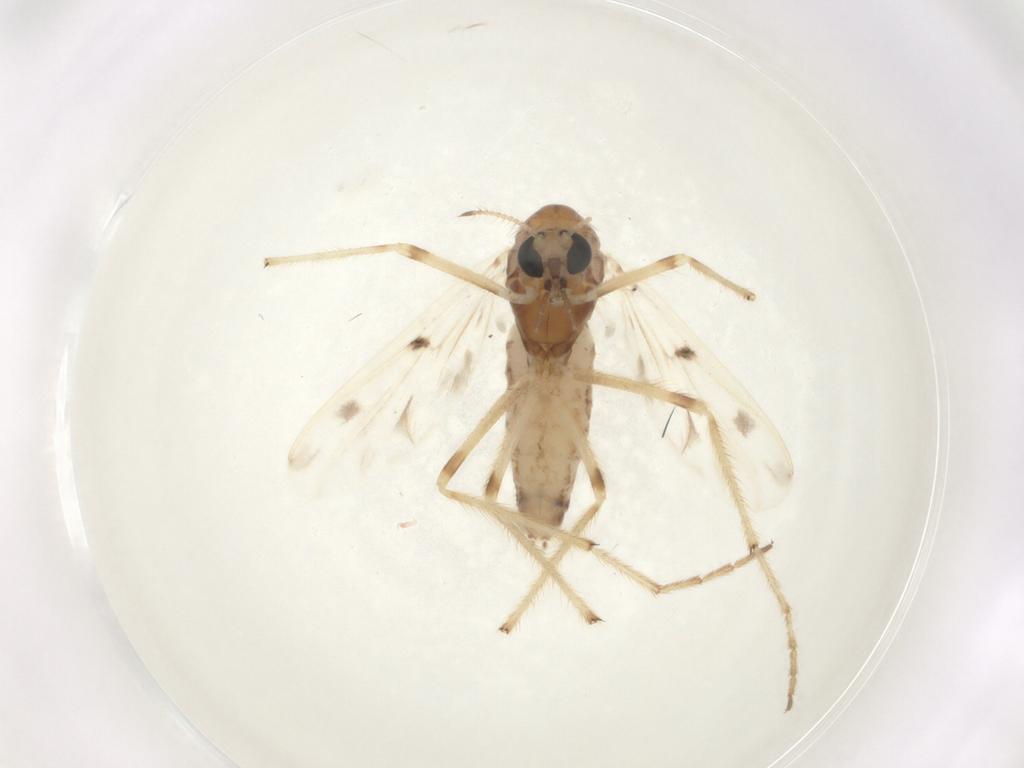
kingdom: Animalia
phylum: Arthropoda
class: Insecta
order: Diptera
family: Chironomidae
